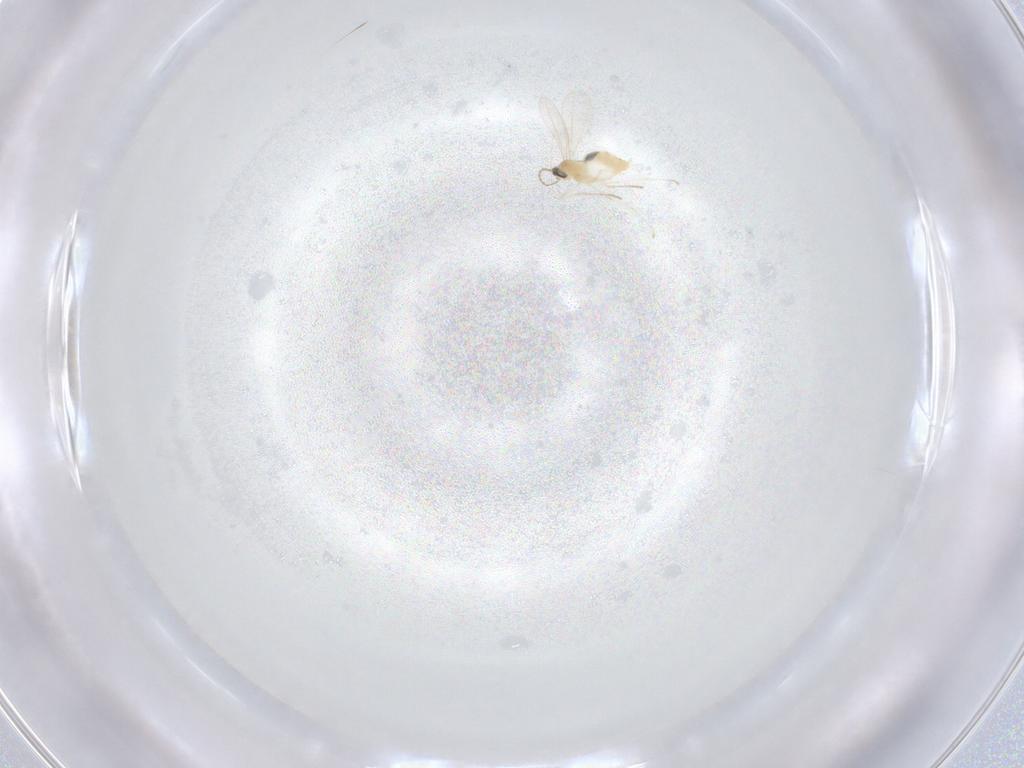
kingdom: Animalia
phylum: Arthropoda
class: Insecta
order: Diptera
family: Cecidomyiidae
